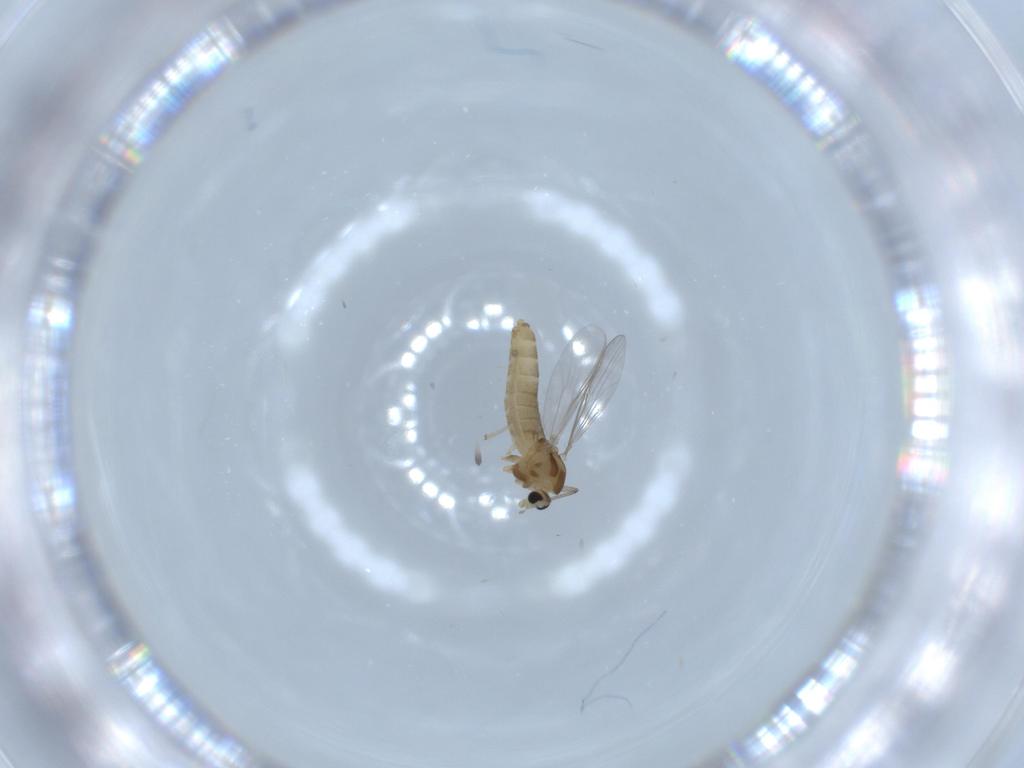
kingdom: Animalia
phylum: Arthropoda
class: Insecta
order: Diptera
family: Chironomidae
